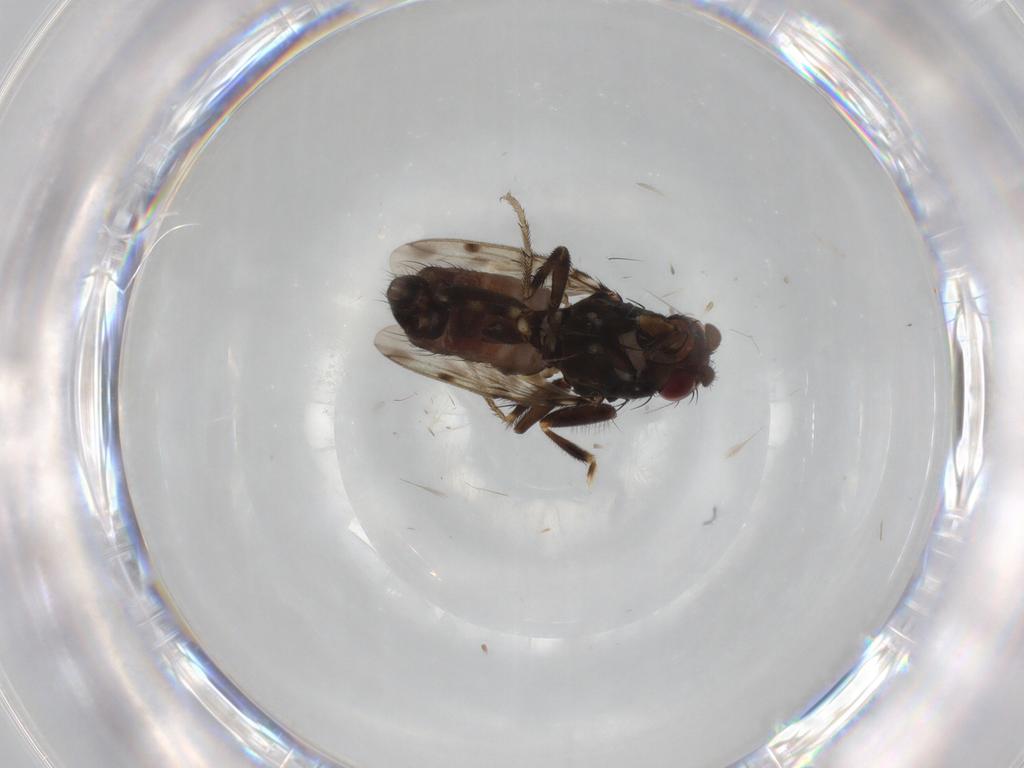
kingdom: Animalia
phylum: Arthropoda
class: Insecta
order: Diptera
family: Sphaeroceridae
